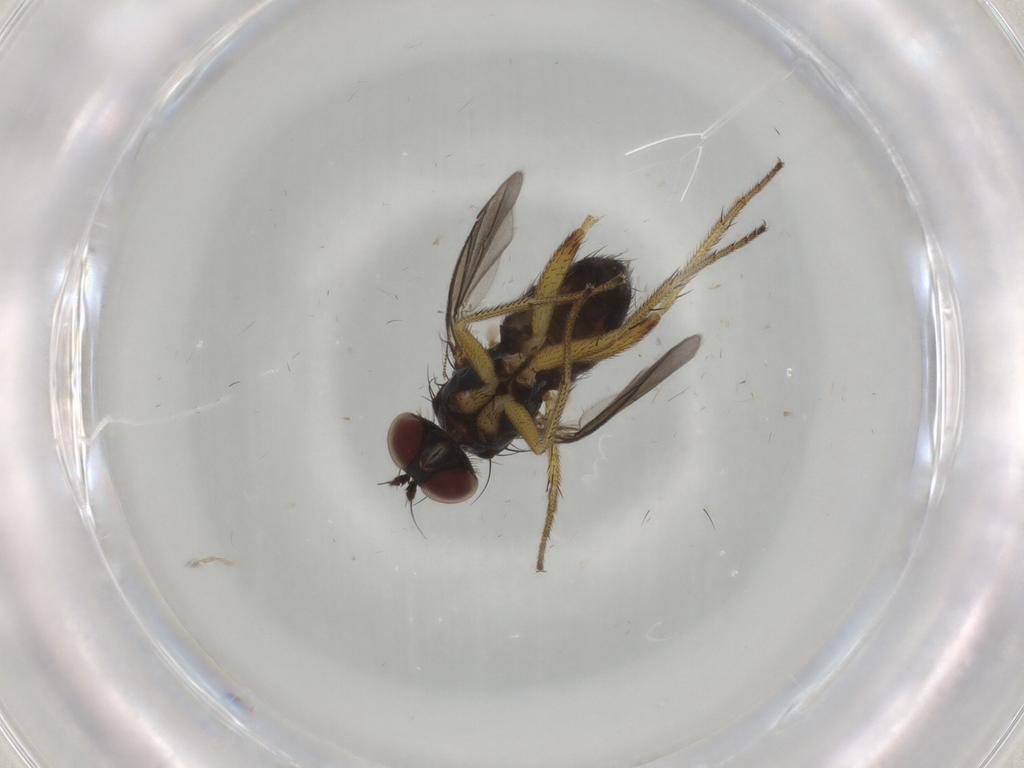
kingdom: Animalia
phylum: Arthropoda
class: Insecta
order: Diptera
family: Dolichopodidae
